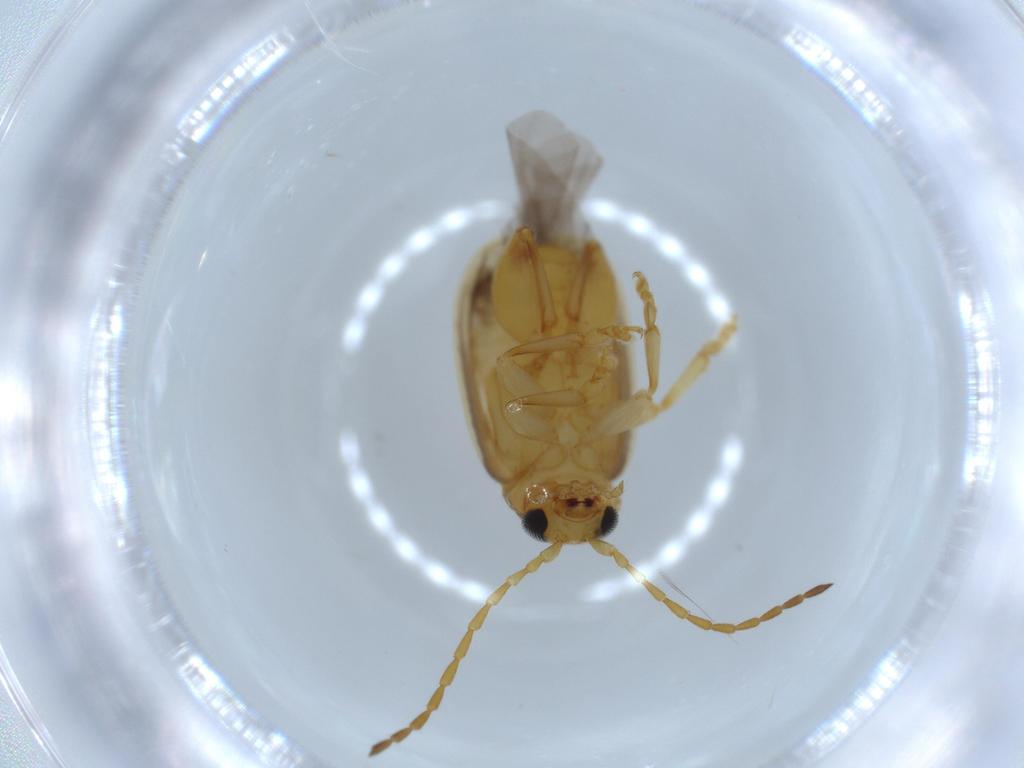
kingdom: Animalia
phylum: Arthropoda
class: Insecta
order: Coleoptera
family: Chrysomelidae
